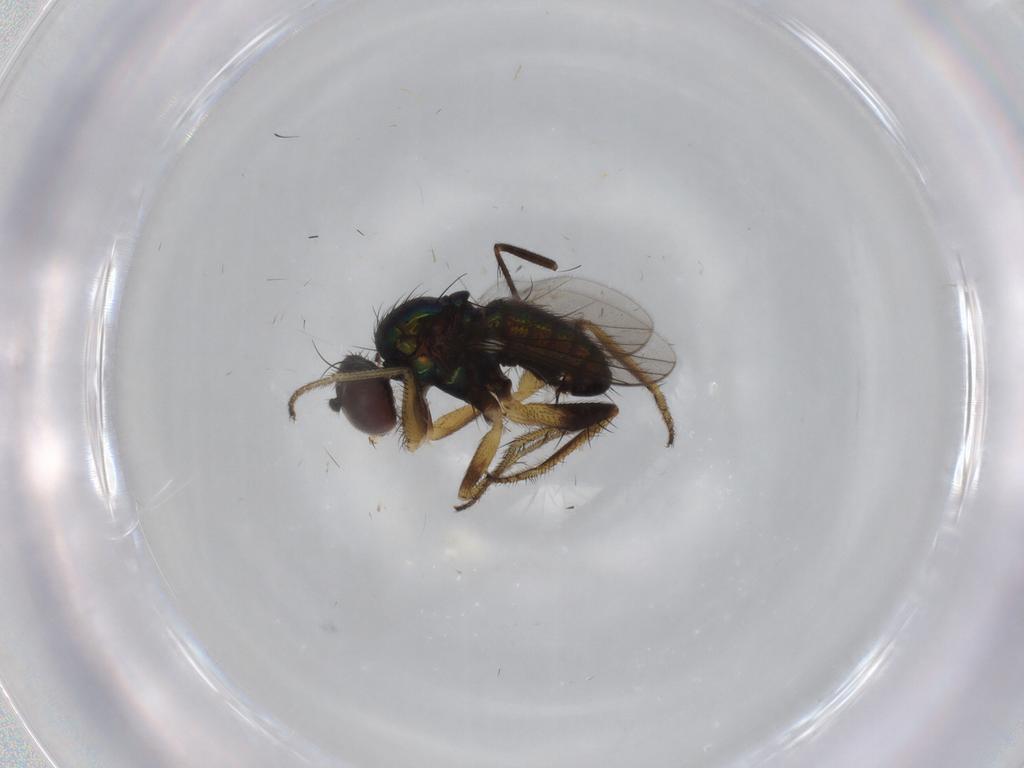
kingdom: Animalia
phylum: Arthropoda
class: Insecta
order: Diptera
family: Dolichopodidae
